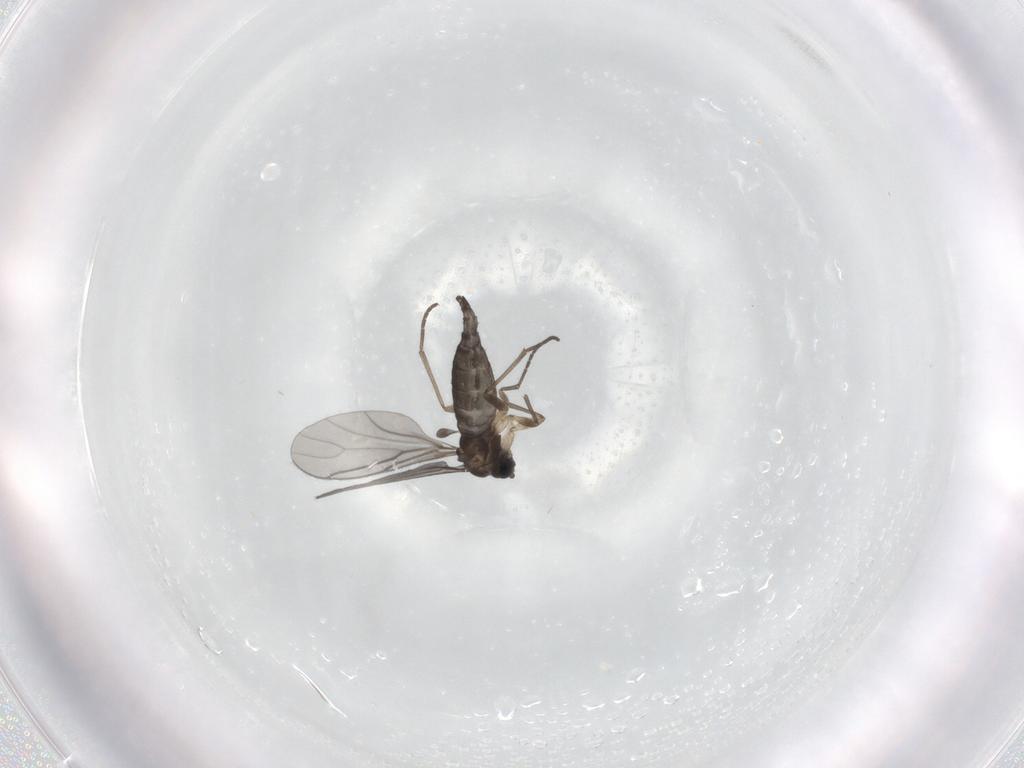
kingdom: Animalia
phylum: Arthropoda
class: Insecta
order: Diptera
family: Sciaridae
